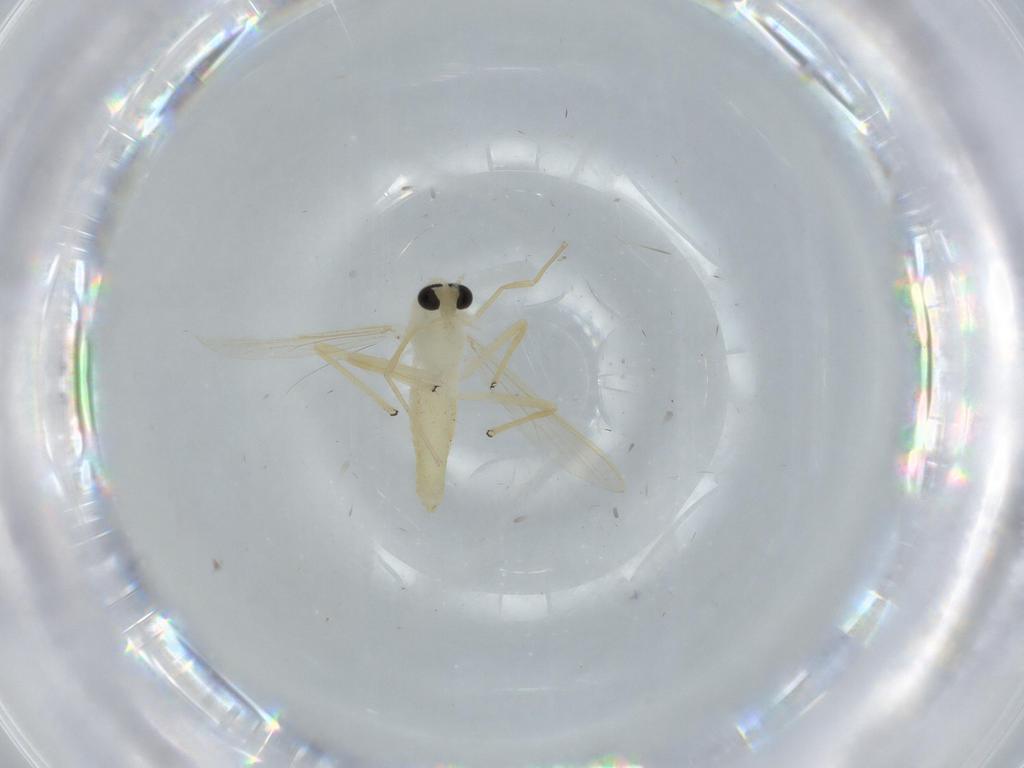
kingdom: Animalia
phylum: Arthropoda
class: Insecta
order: Diptera
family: Chironomidae
